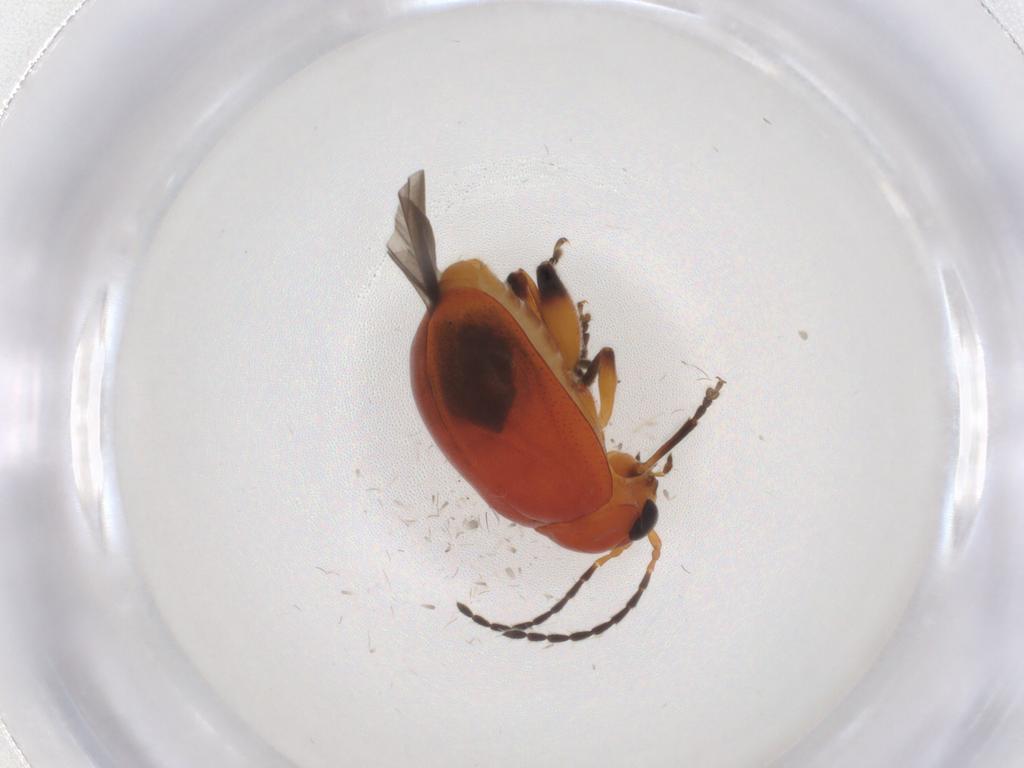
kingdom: Animalia
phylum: Arthropoda
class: Insecta
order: Coleoptera
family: Chrysomelidae
